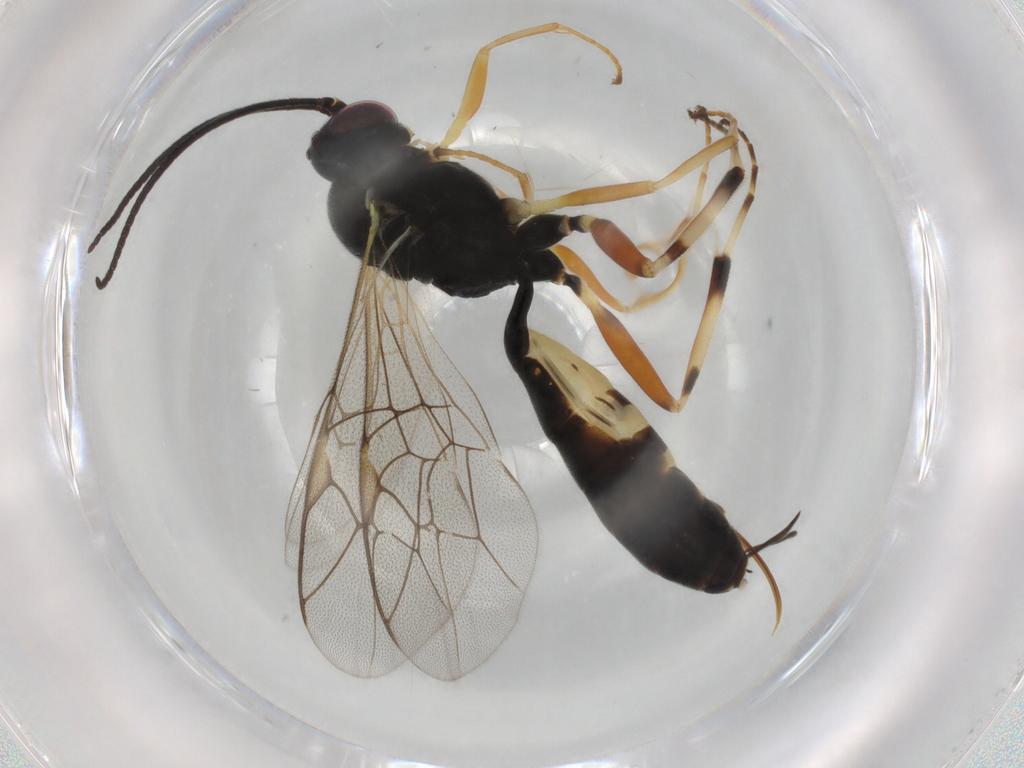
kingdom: Animalia
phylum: Arthropoda
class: Insecta
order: Hymenoptera
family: Ichneumonidae
